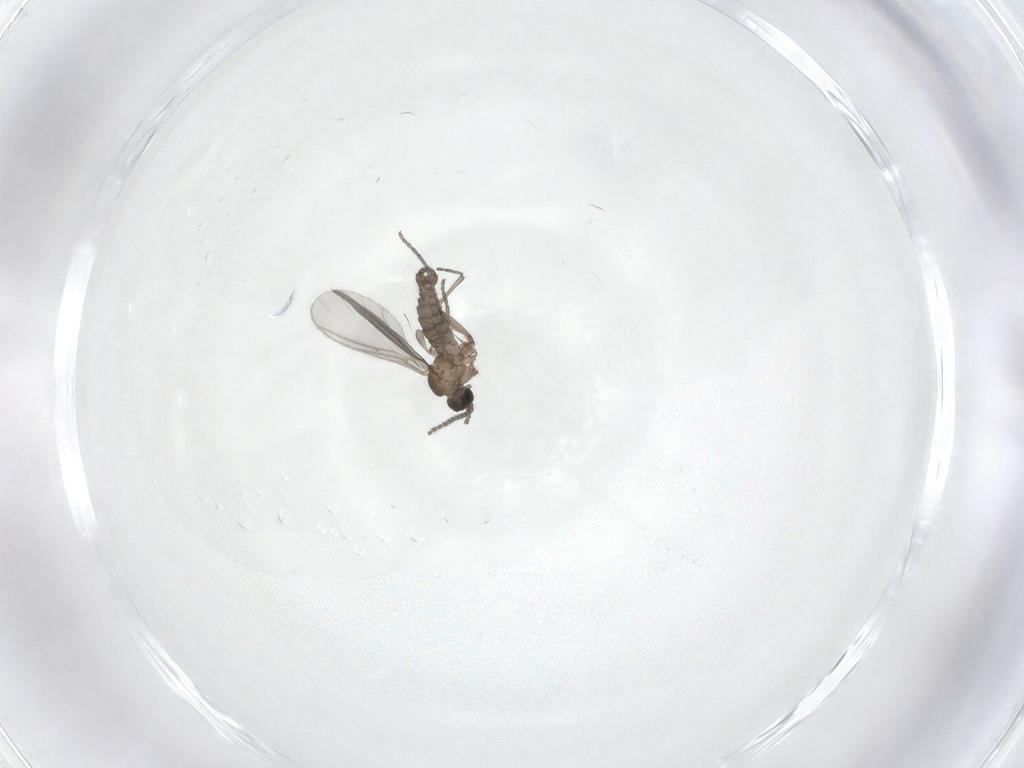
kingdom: Animalia
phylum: Arthropoda
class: Insecta
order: Diptera
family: Sciaridae
